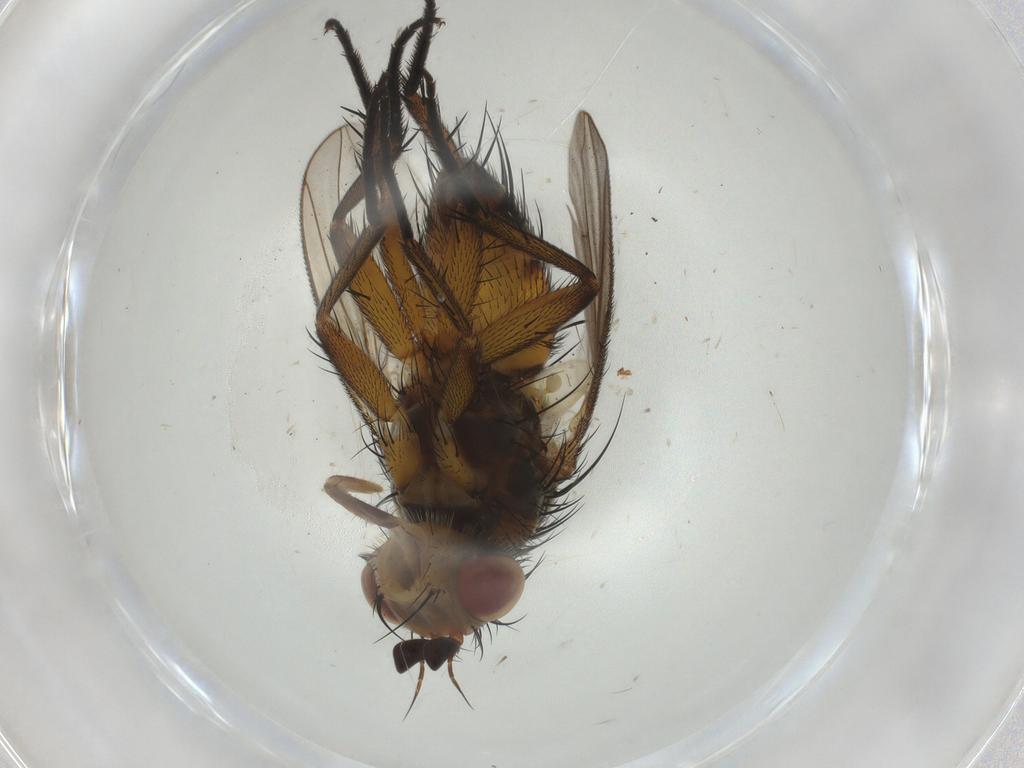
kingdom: Animalia
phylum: Arthropoda
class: Insecta
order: Diptera
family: Tachinidae
